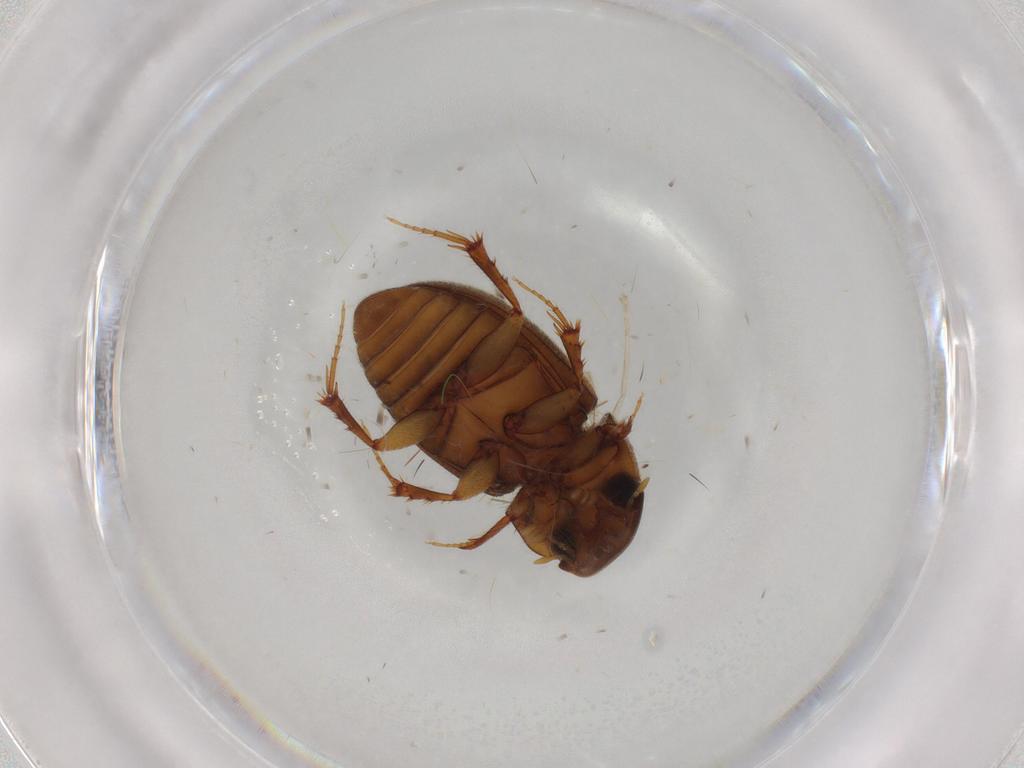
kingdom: Animalia
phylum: Arthropoda
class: Insecta
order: Coleoptera
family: Scarabaeidae
